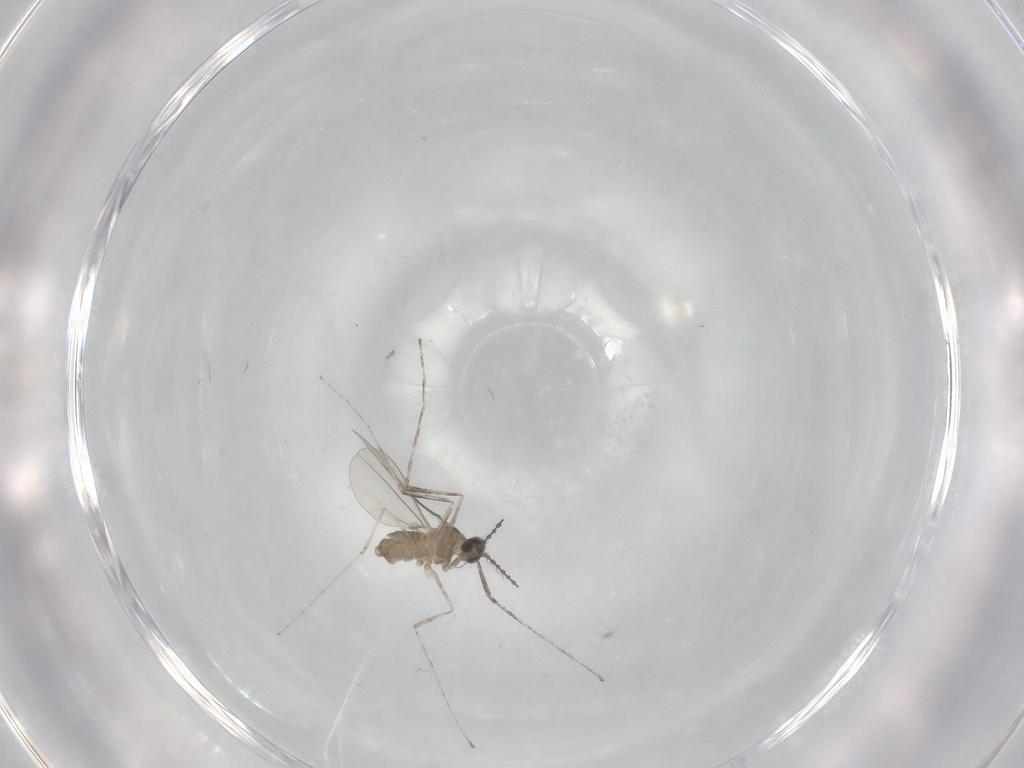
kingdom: Animalia
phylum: Arthropoda
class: Insecta
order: Diptera
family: Cecidomyiidae
